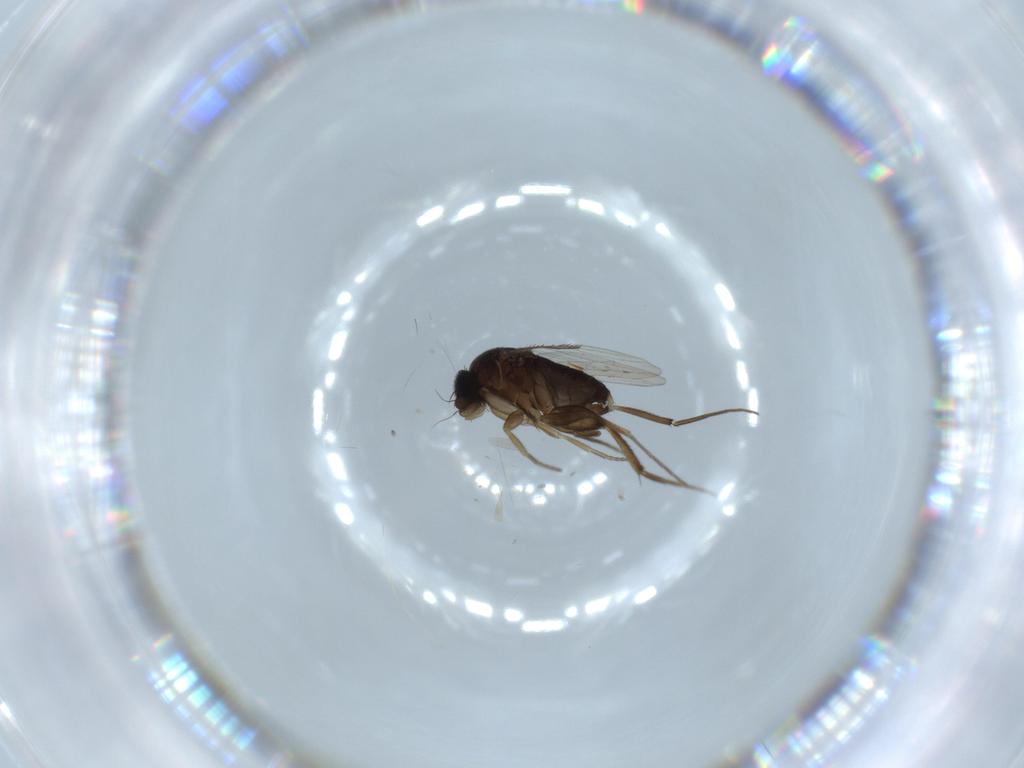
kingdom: Animalia
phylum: Arthropoda
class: Insecta
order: Diptera
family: Phoridae
